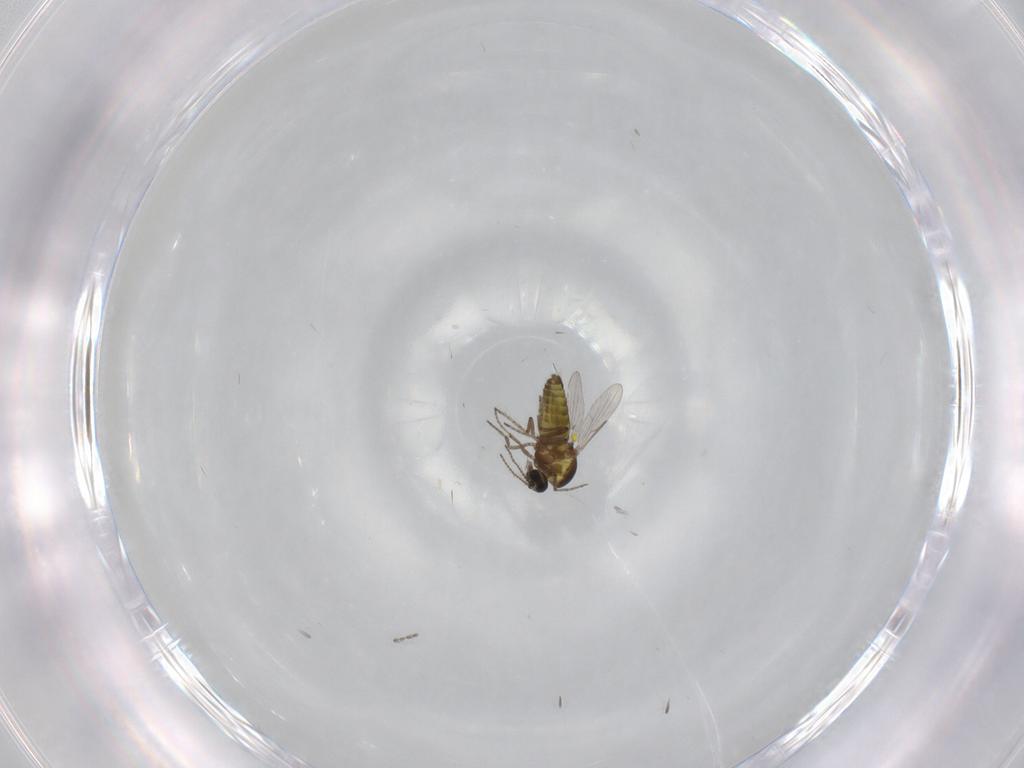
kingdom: Animalia
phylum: Arthropoda
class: Insecta
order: Diptera
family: Ceratopogonidae
